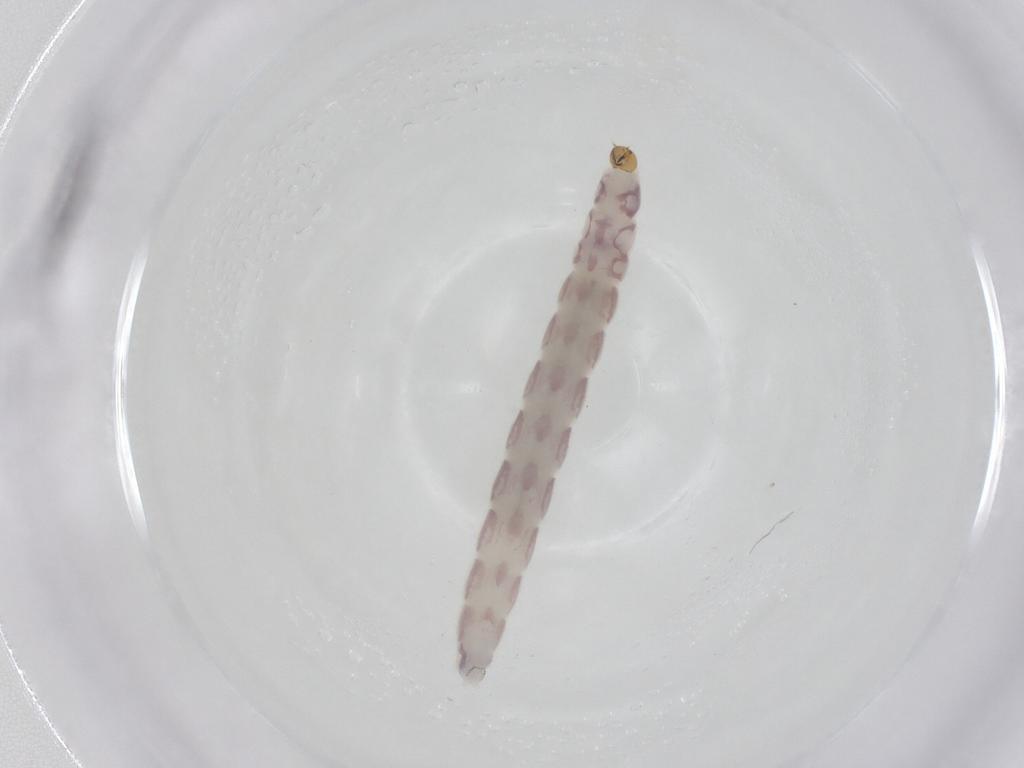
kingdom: Animalia
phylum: Arthropoda
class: Insecta
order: Diptera
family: Chironomidae
